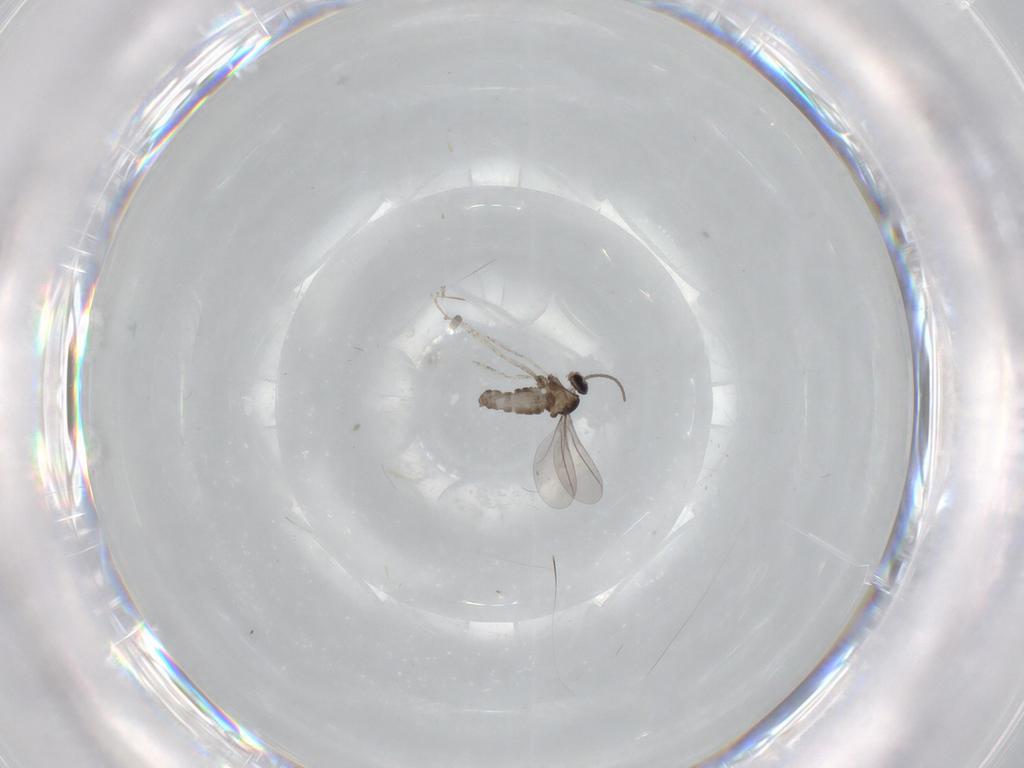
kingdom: Animalia
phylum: Arthropoda
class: Insecta
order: Diptera
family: Cecidomyiidae
